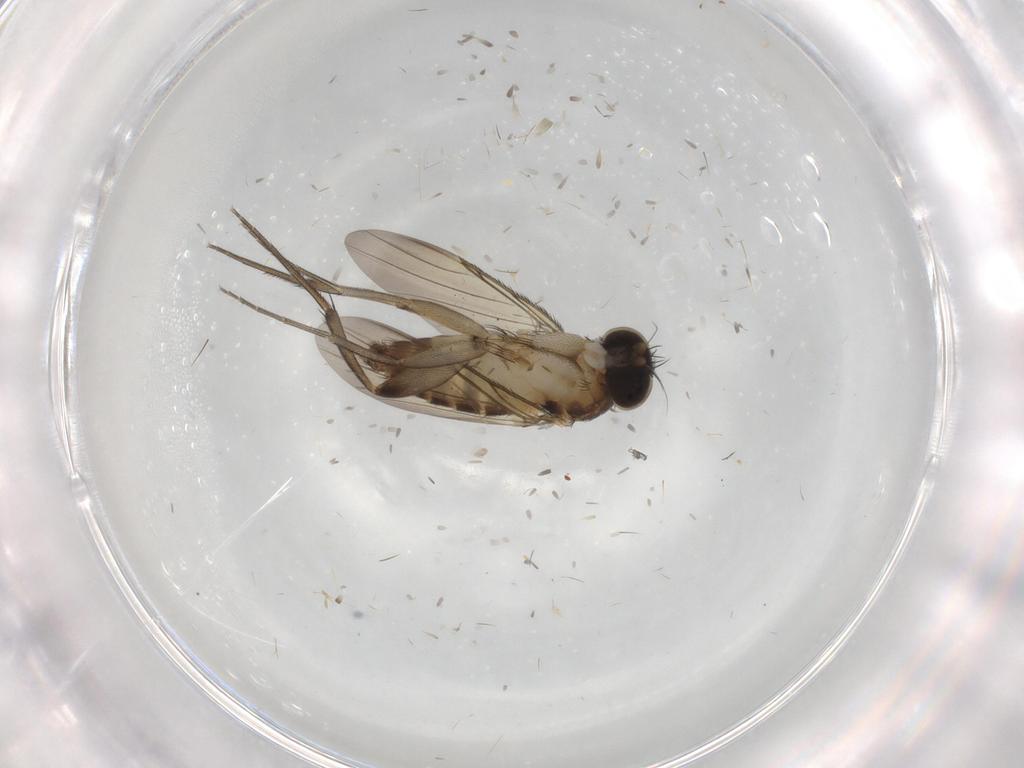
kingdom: Animalia
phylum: Arthropoda
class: Insecta
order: Diptera
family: Phoridae
